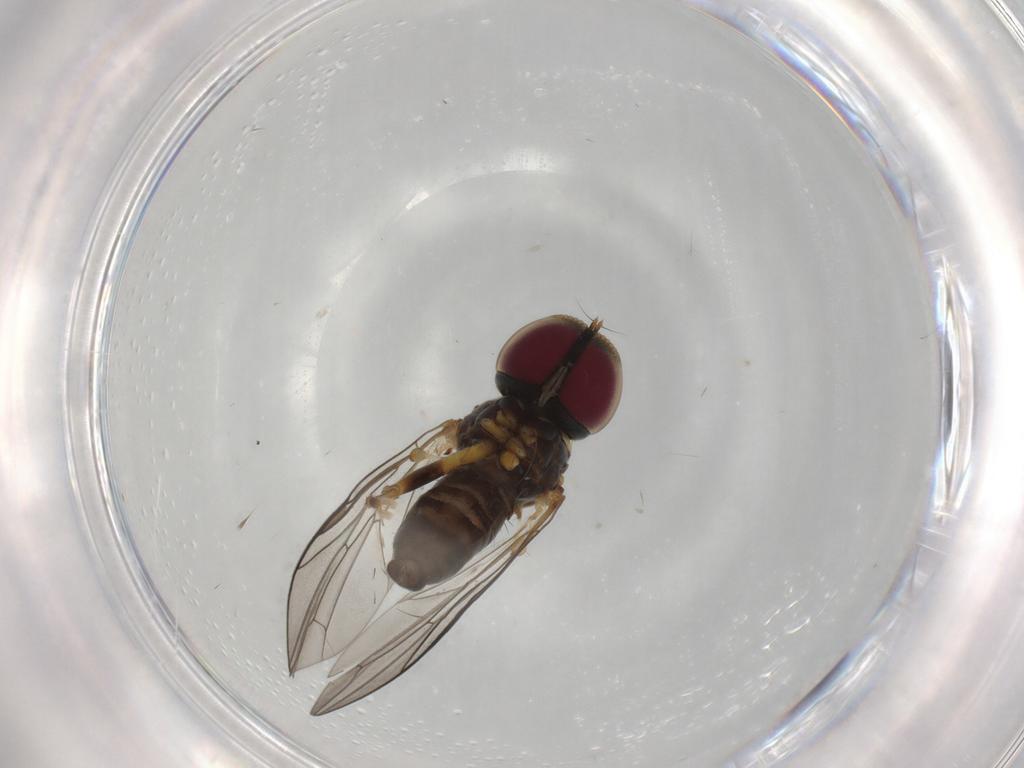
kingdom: Animalia
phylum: Arthropoda
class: Insecta
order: Diptera
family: Pipunculidae
